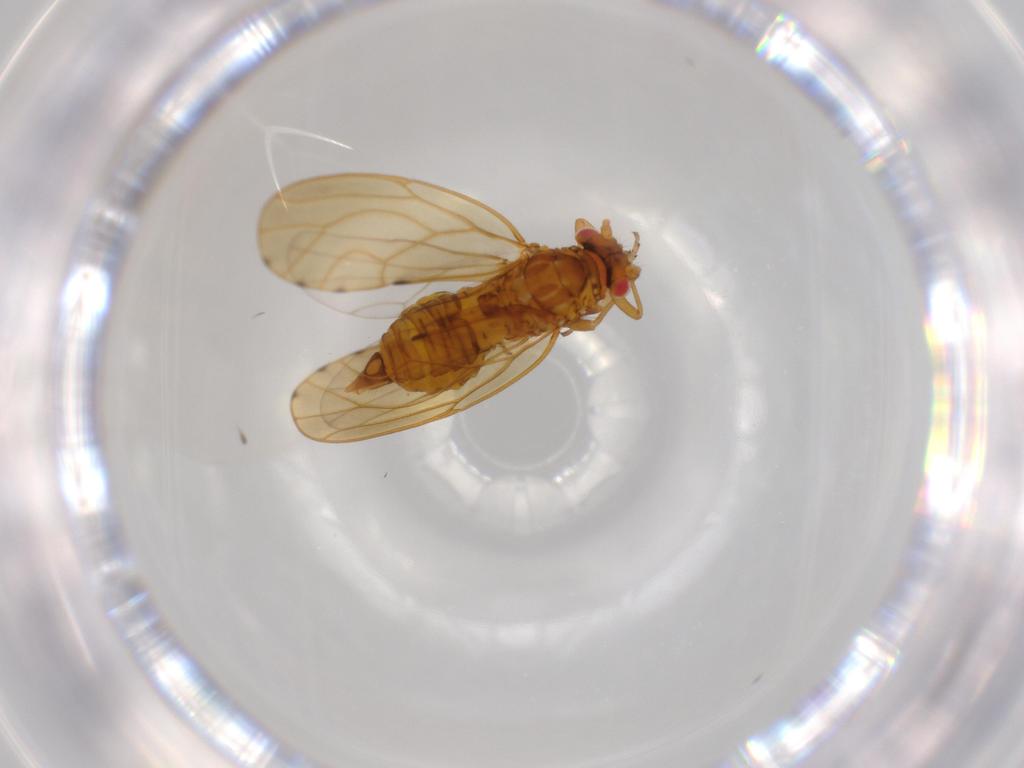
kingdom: Animalia
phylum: Arthropoda
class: Insecta
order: Hemiptera
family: Psylloidea_incertae_sedis
